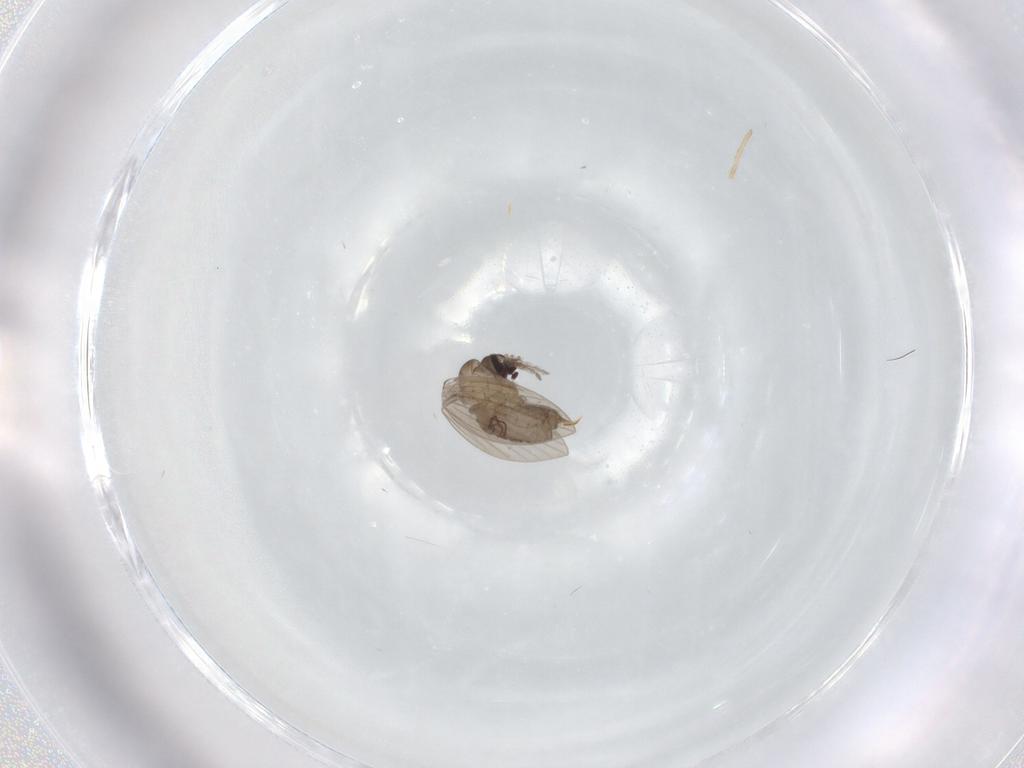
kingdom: Animalia
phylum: Arthropoda
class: Insecta
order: Diptera
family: Psychodidae
